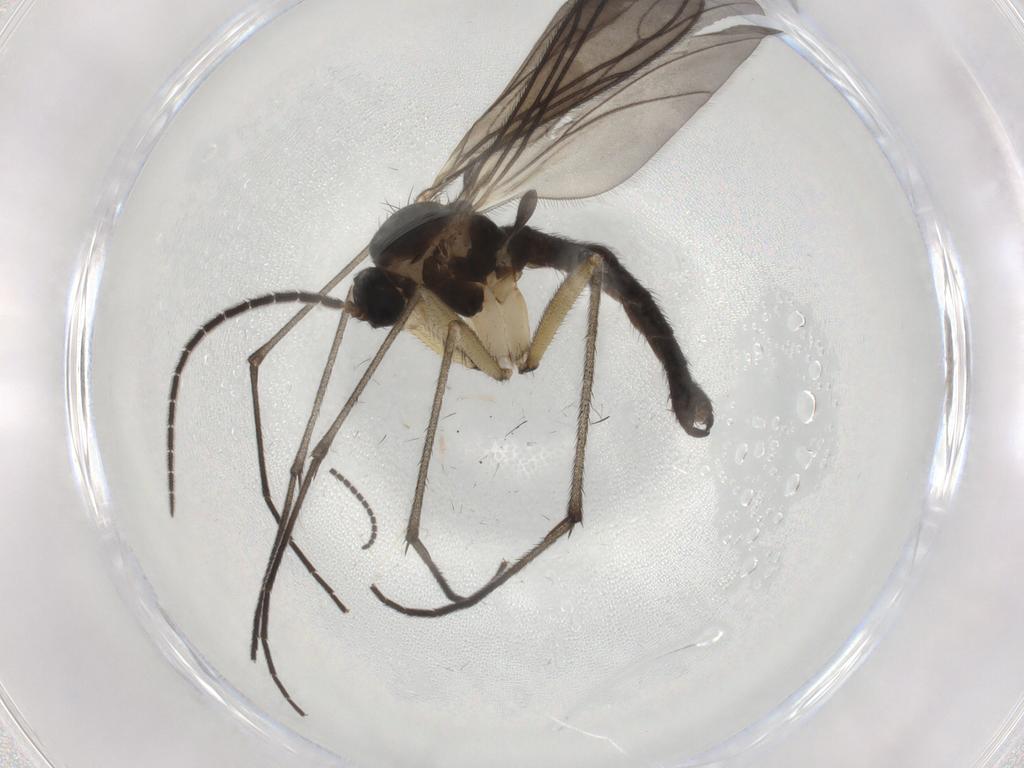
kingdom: Animalia
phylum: Arthropoda
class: Insecta
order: Diptera
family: Sciaridae
